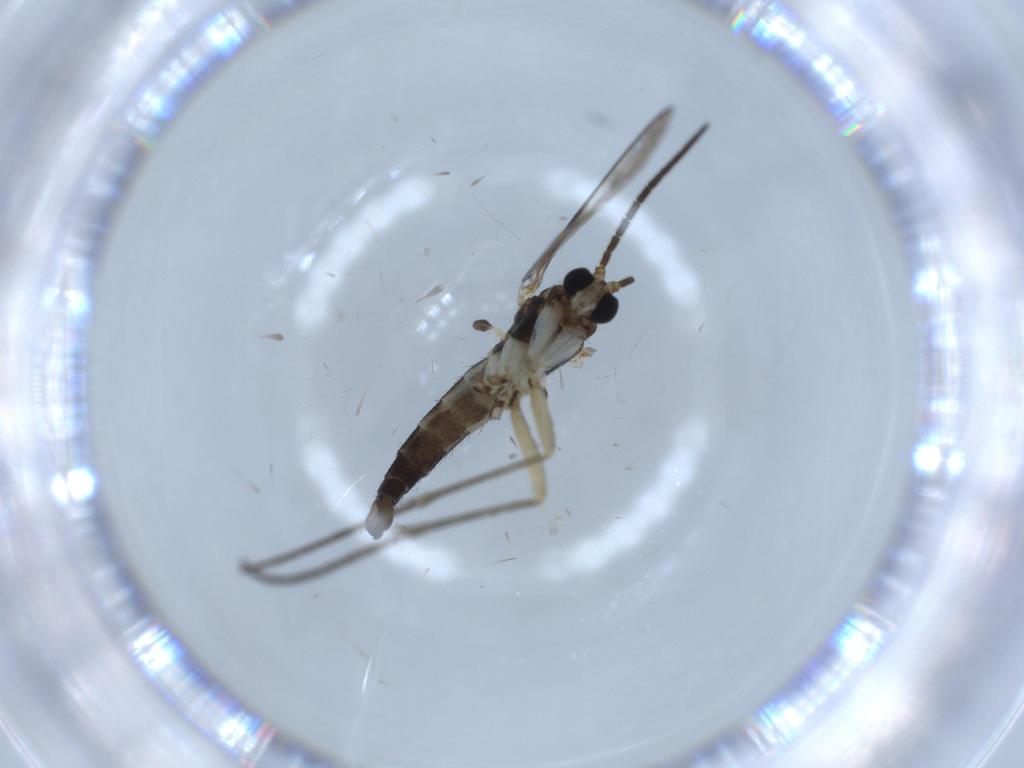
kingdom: Animalia
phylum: Arthropoda
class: Insecta
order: Diptera
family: Sciaridae
